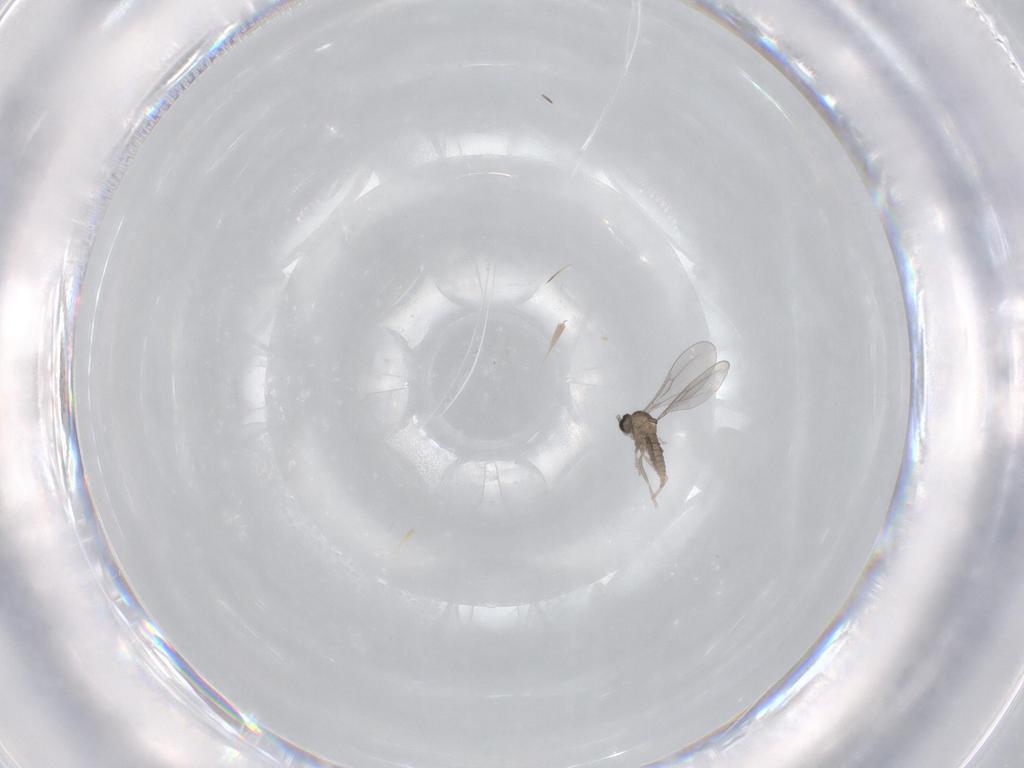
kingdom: Animalia
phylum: Arthropoda
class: Insecta
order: Diptera
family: Cecidomyiidae
